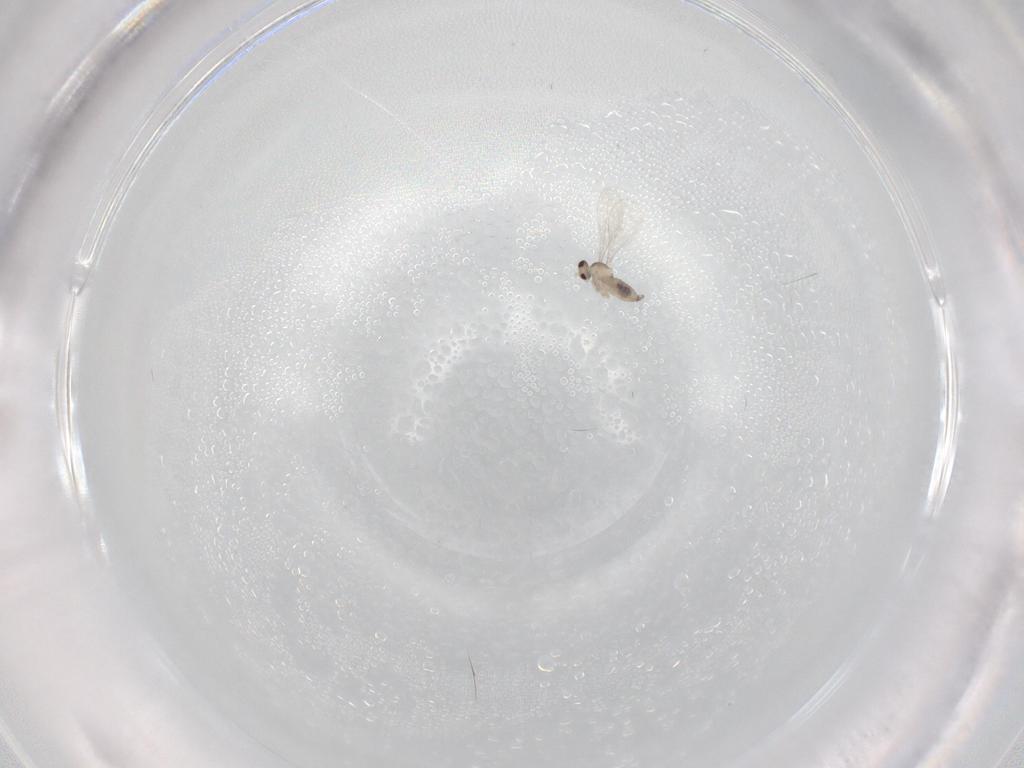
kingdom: Animalia
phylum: Arthropoda
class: Insecta
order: Diptera
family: Cecidomyiidae
